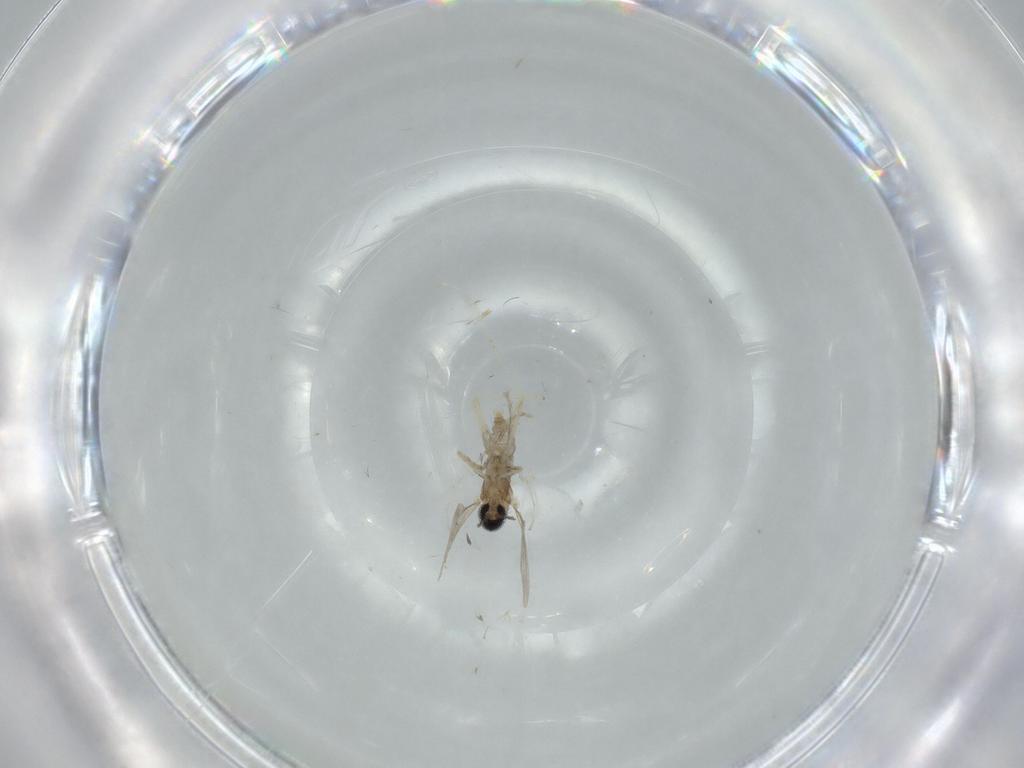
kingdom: Animalia
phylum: Arthropoda
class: Insecta
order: Diptera
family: Cecidomyiidae
